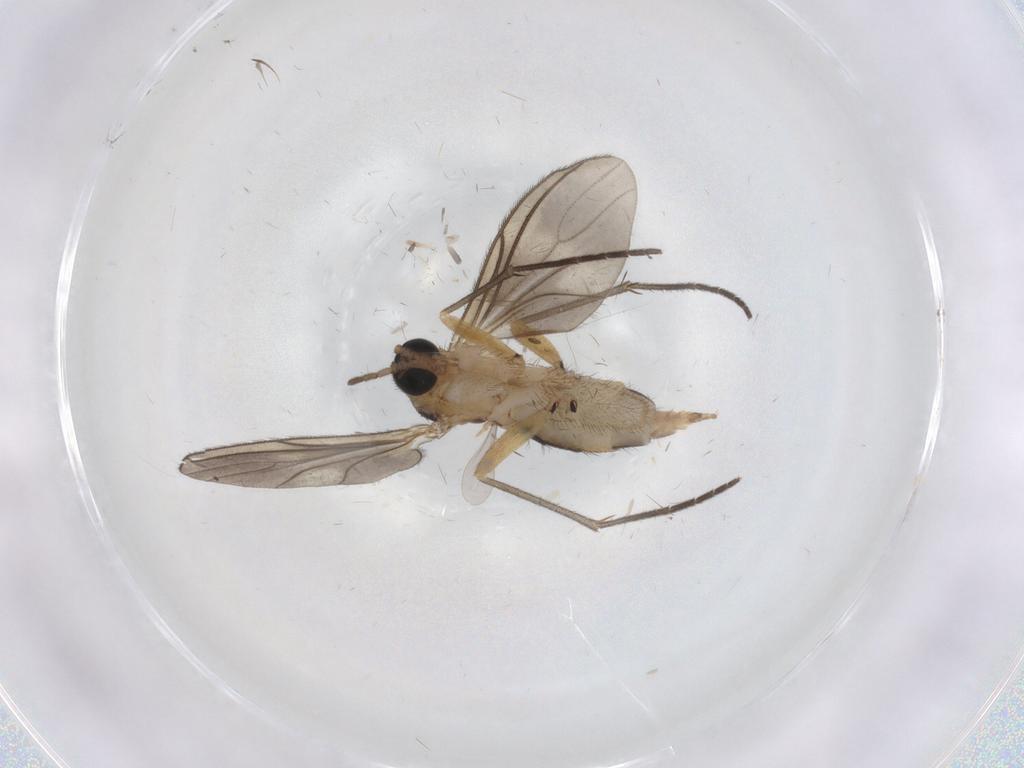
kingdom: Animalia
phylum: Arthropoda
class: Insecta
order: Diptera
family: Sciaridae
